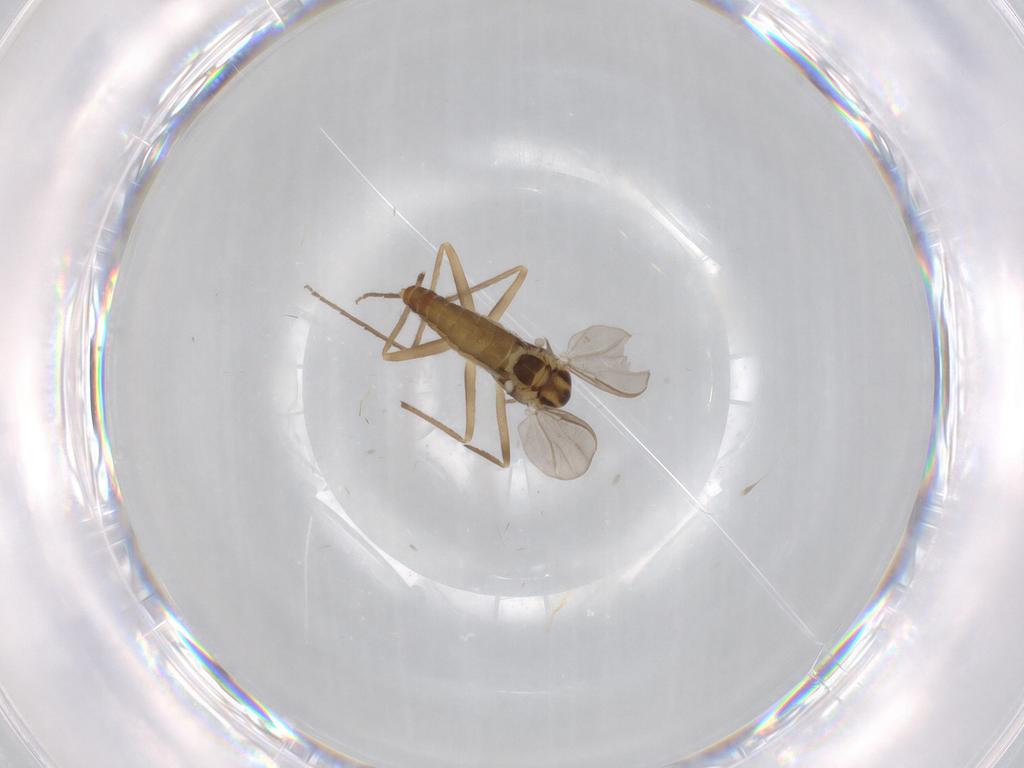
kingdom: Animalia
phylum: Arthropoda
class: Insecta
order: Diptera
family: Chironomidae
